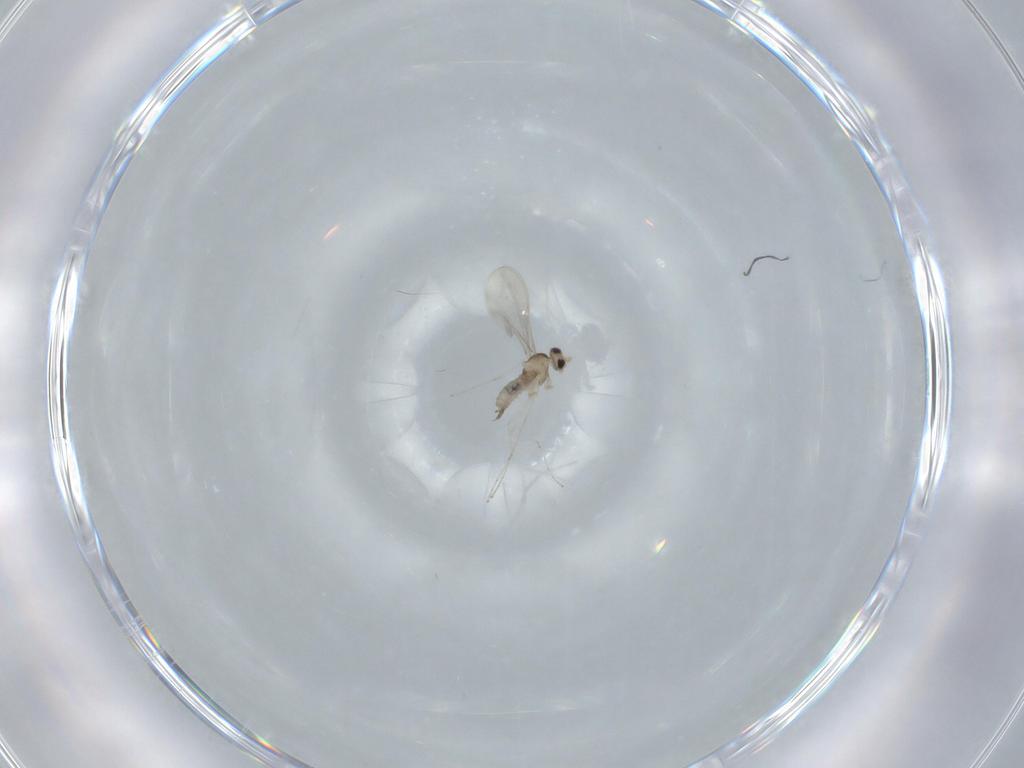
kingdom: Animalia
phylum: Arthropoda
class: Insecta
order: Diptera
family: Cecidomyiidae
